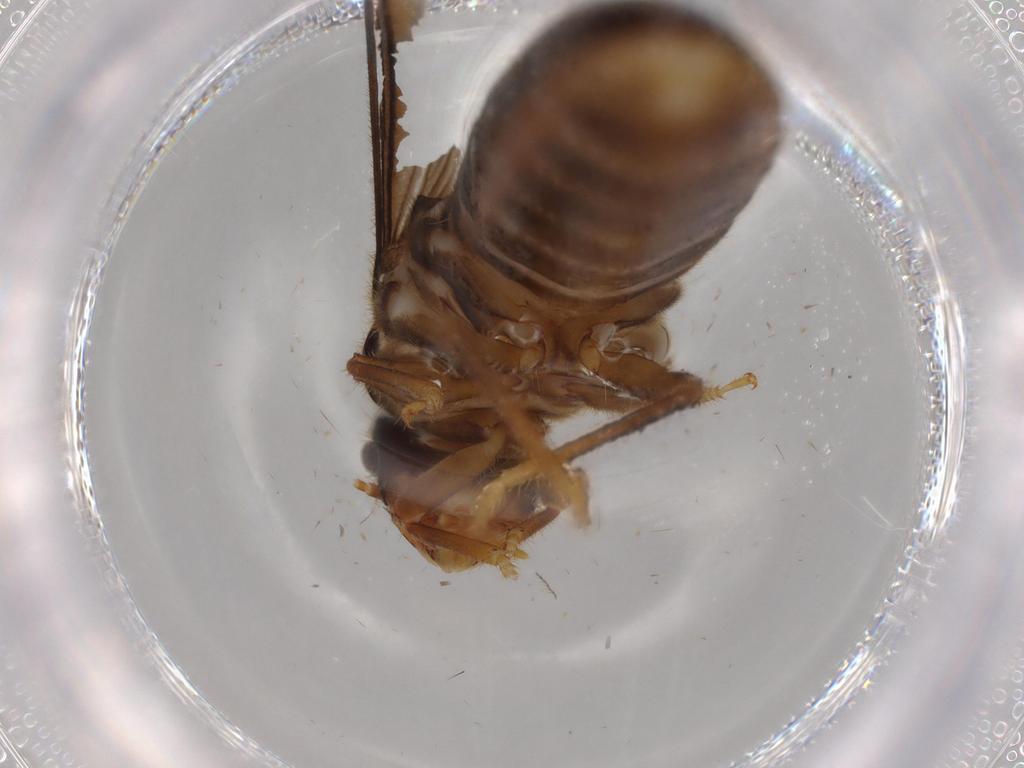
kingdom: Animalia
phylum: Arthropoda
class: Insecta
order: Blattodea
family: Termitidae
